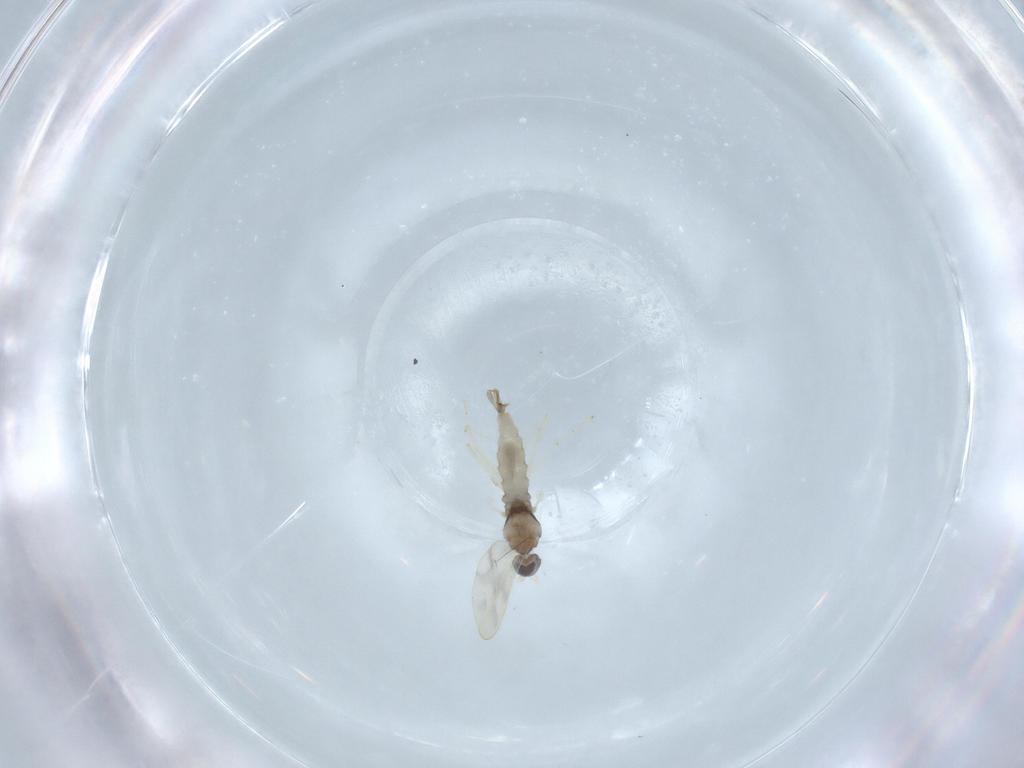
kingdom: Animalia
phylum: Arthropoda
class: Insecta
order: Diptera
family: Cecidomyiidae
